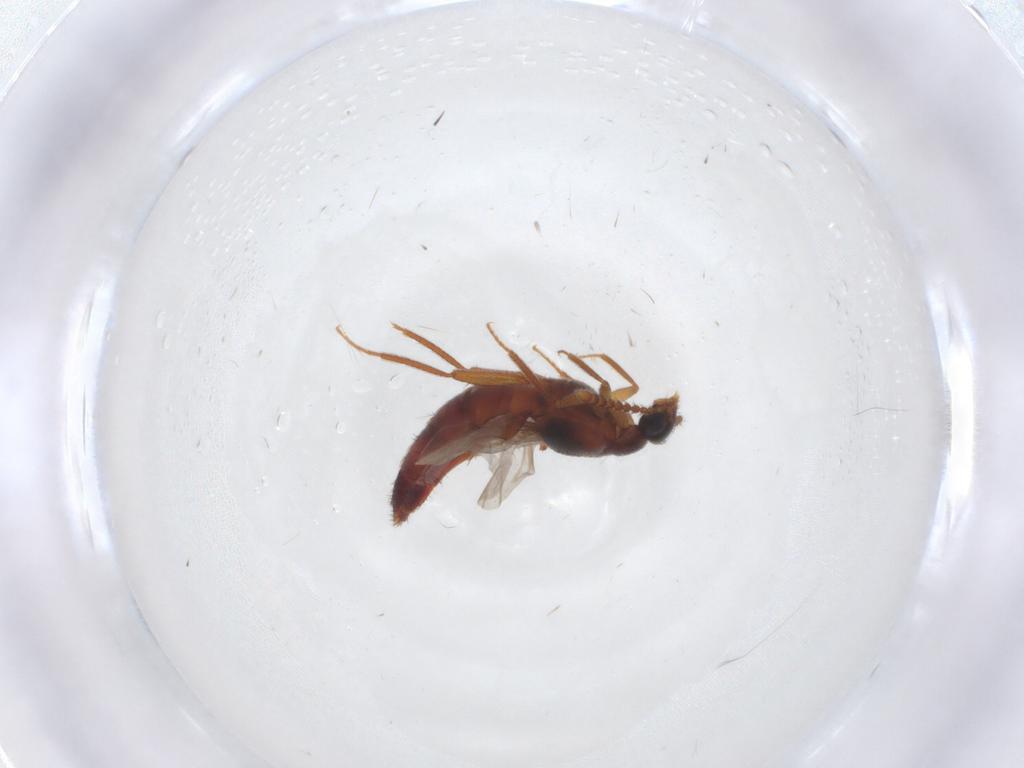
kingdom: Animalia
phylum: Arthropoda
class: Insecta
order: Coleoptera
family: Staphylinidae
